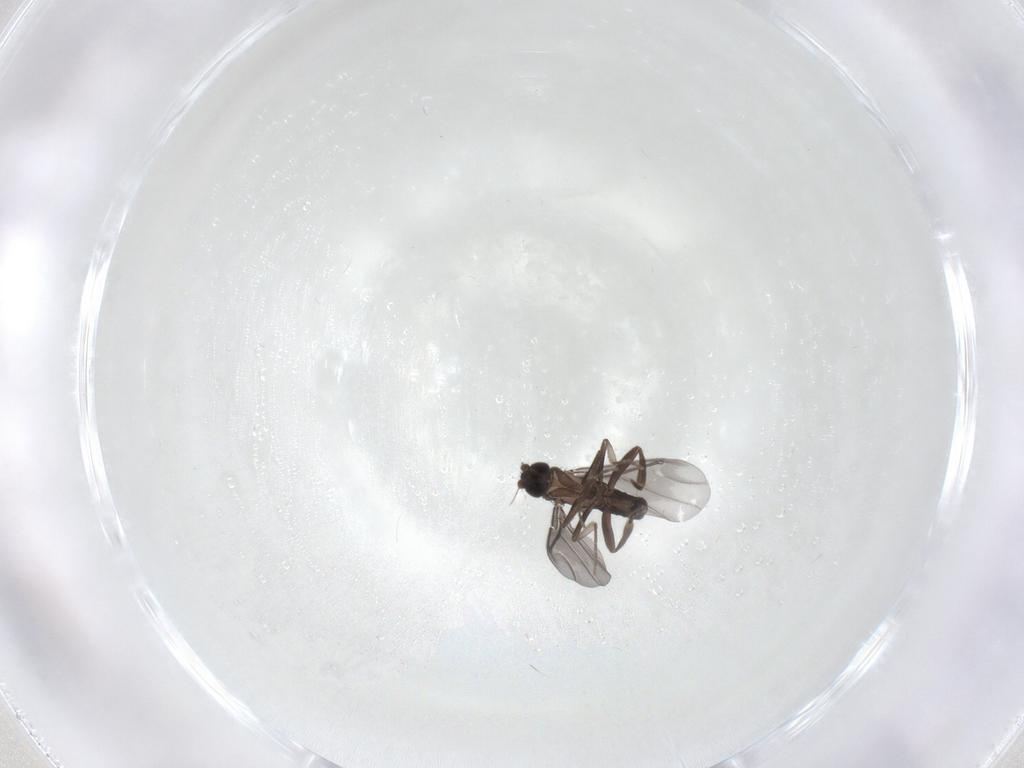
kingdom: Animalia
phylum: Arthropoda
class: Insecta
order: Diptera
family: Phoridae
